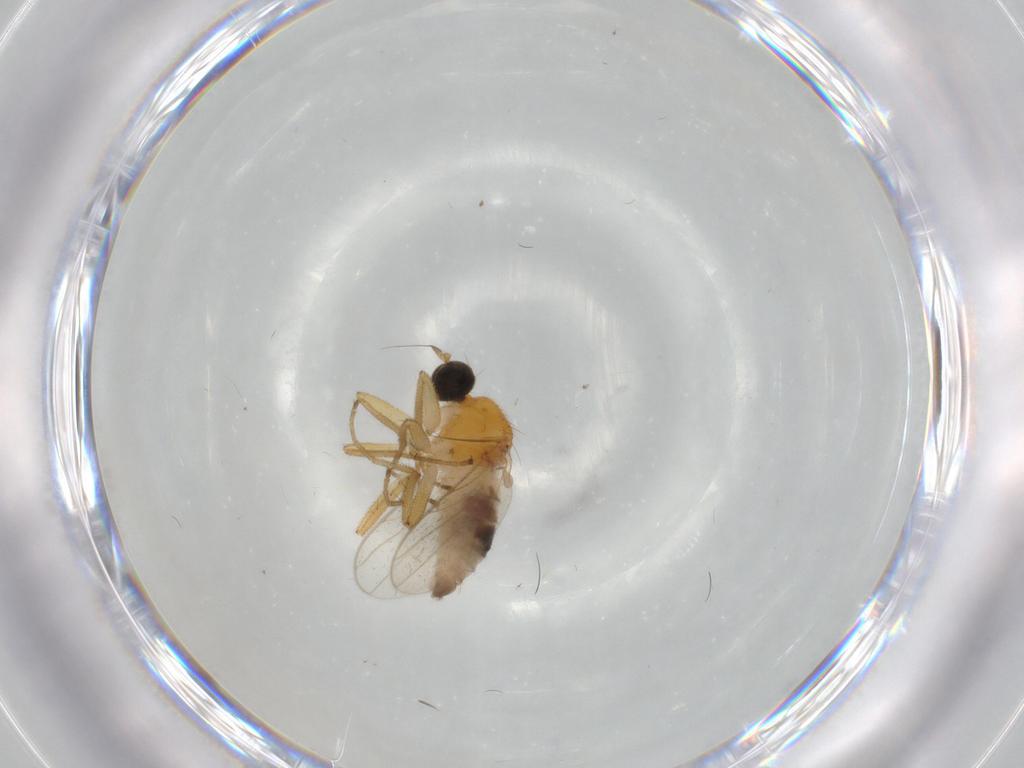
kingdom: Animalia
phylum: Arthropoda
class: Insecta
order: Diptera
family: Hybotidae
